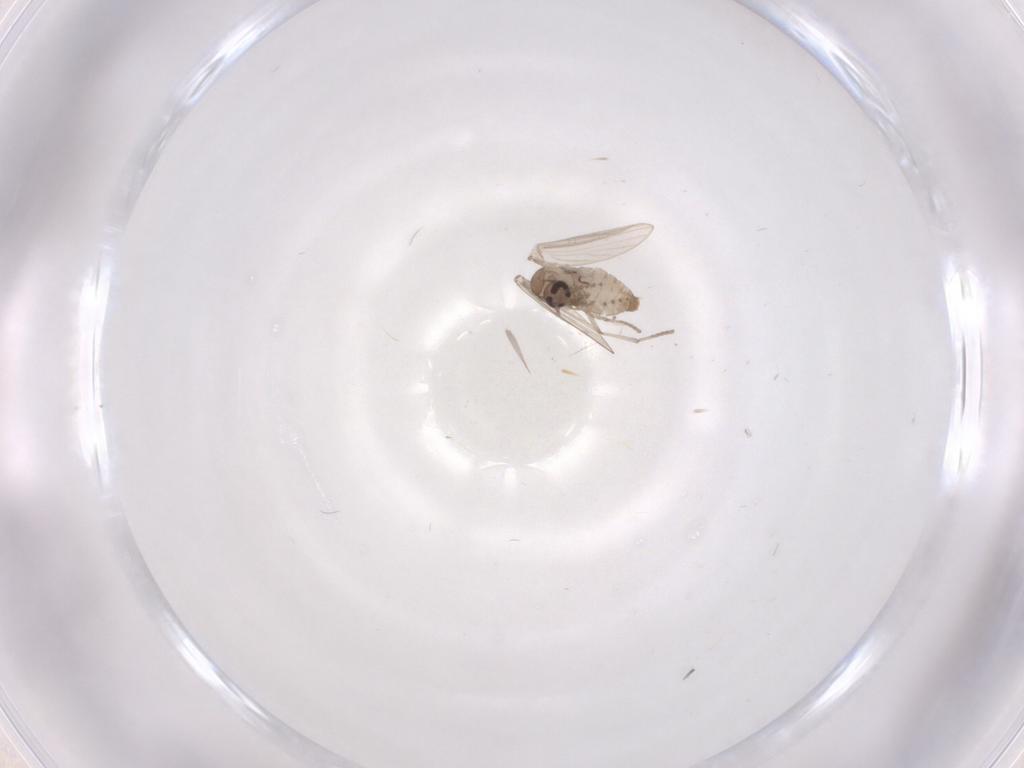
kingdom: Animalia
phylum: Arthropoda
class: Insecta
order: Diptera
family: Psychodidae
